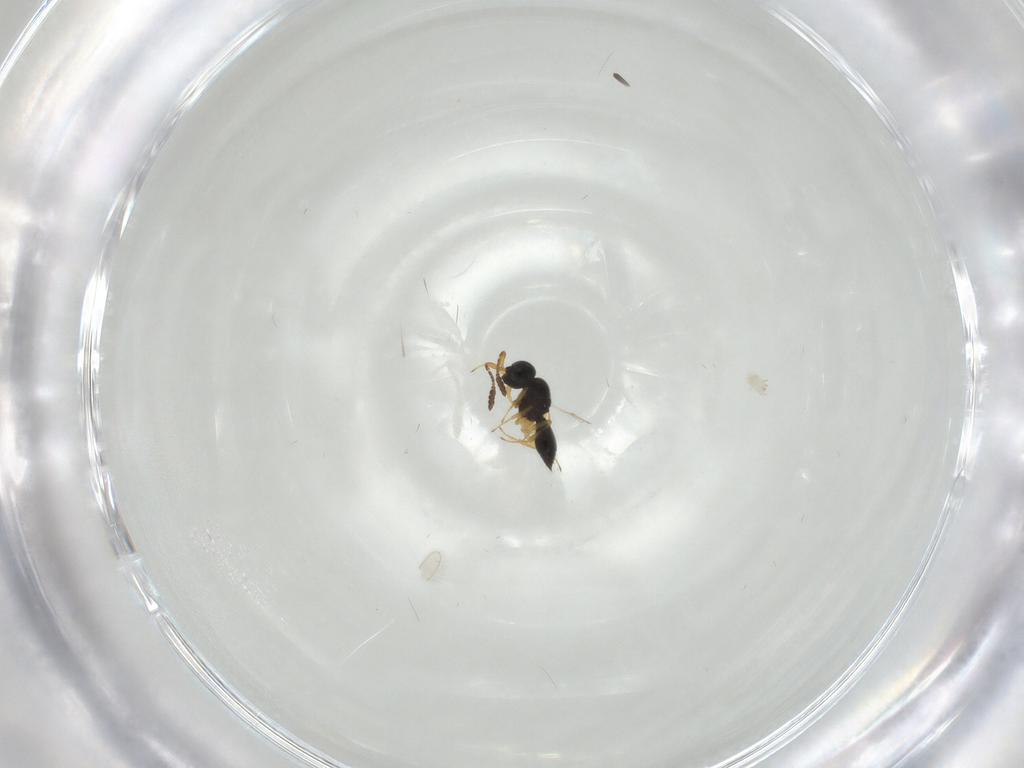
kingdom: Animalia
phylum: Arthropoda
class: Insecta
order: Hymenoptera
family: Scelionidae
